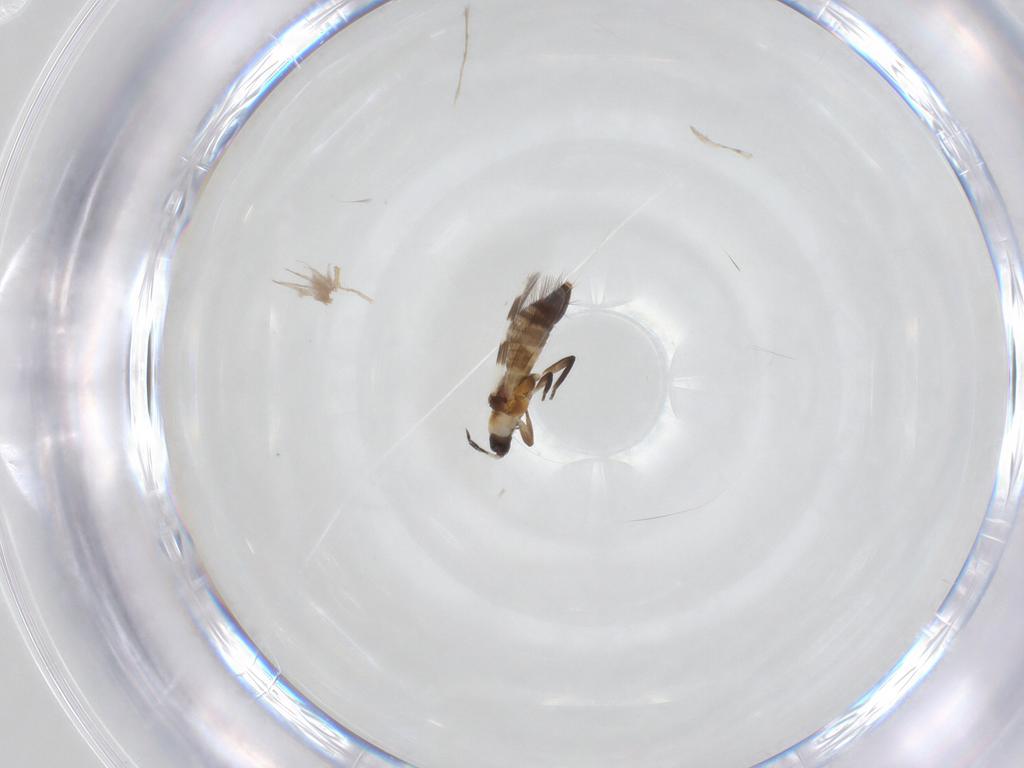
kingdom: Animalia
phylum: Arthropoda
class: Insecta
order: Thysanoptera
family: Aeolothripidae
